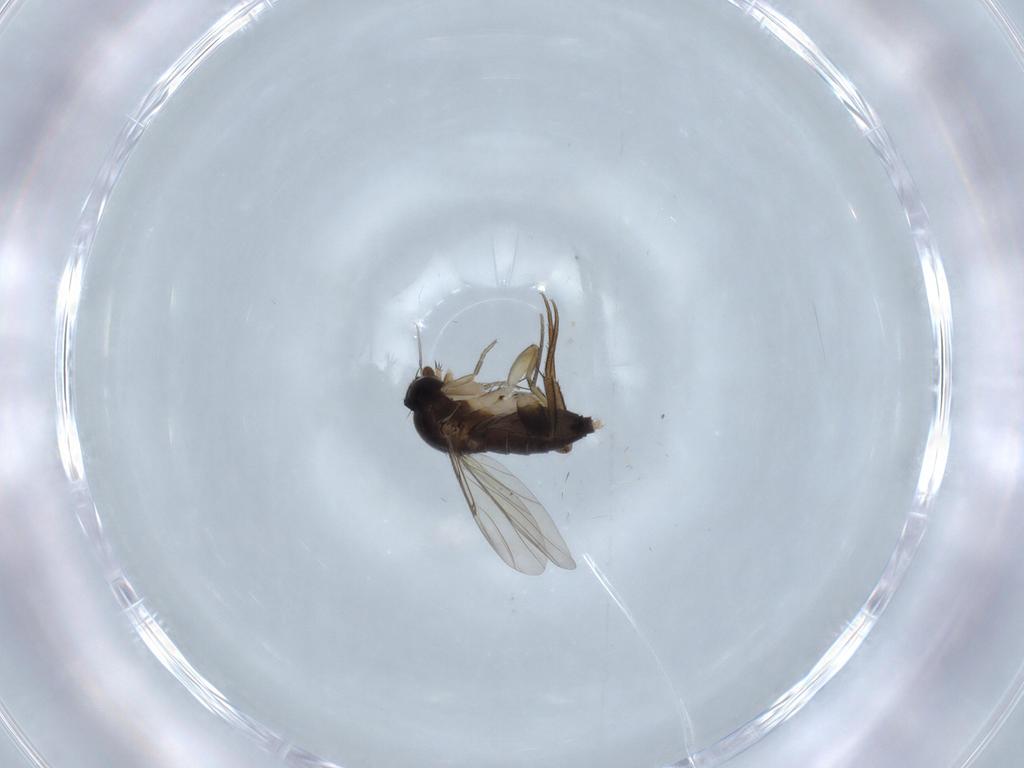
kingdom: Animalia
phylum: Arthropoda
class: Insecta
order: Diptera
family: Phoridae
